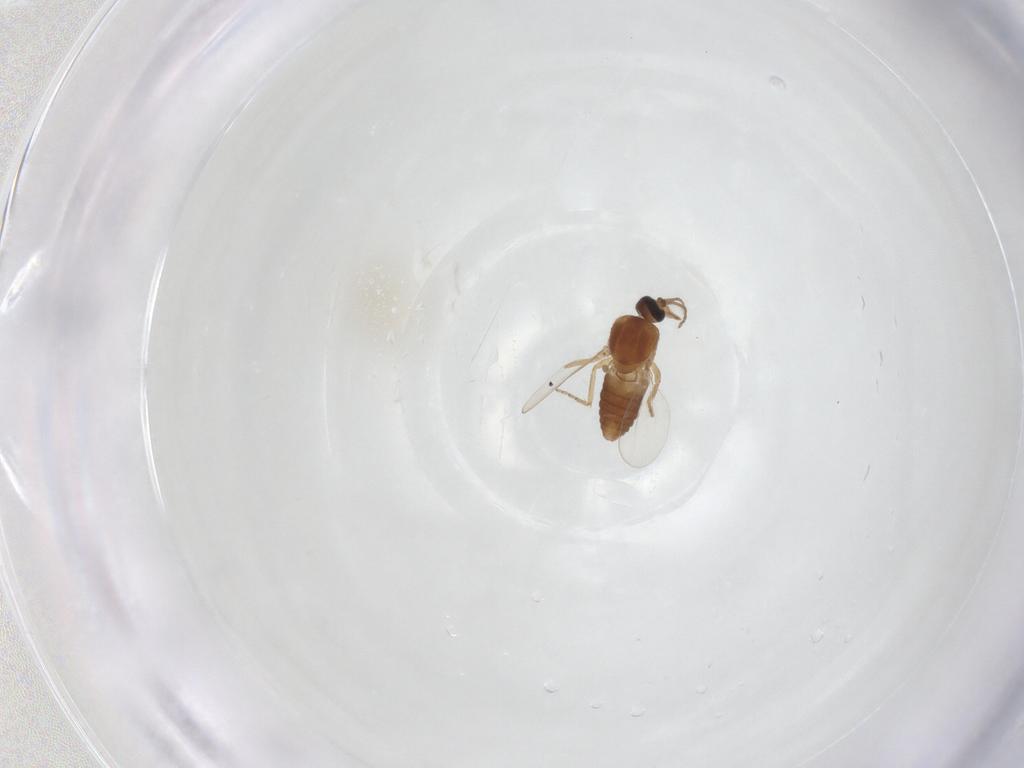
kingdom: Animalia
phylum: Arthropoda
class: Insecta
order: Diptera
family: Ceratopogonidae
